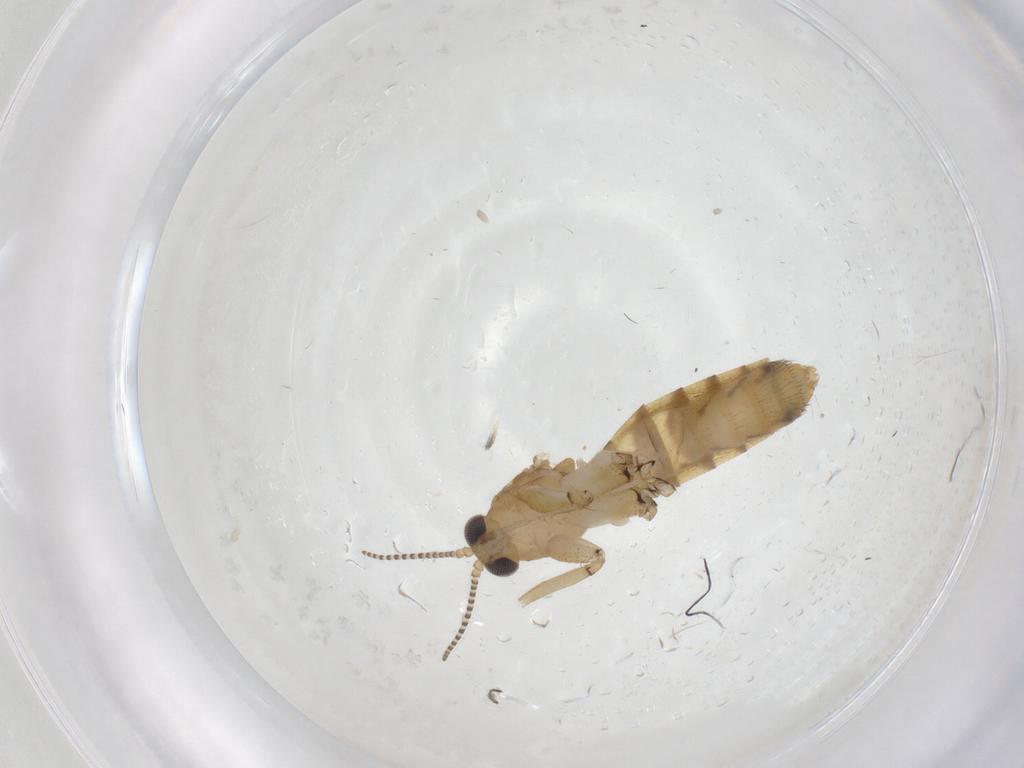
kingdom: Animalia
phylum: Arthropoda
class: Insecta
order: Diptera
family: Mycetophilidae
